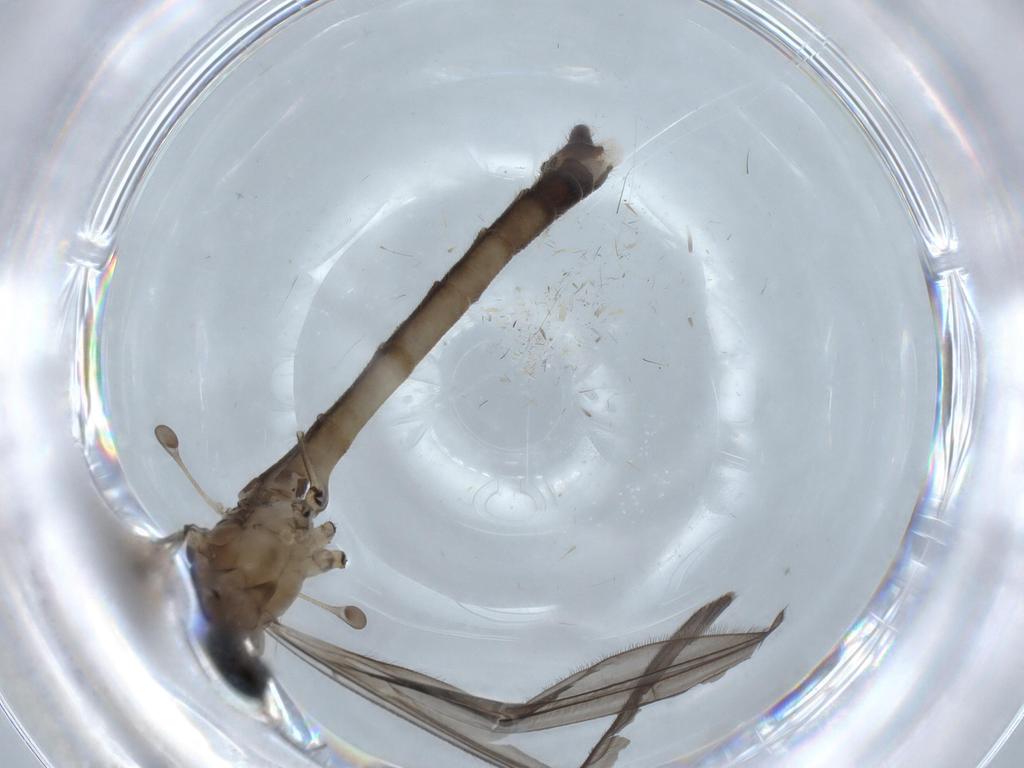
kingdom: Animalia
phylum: Arthropoda
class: Insecta
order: Diptera
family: Limoniidae
